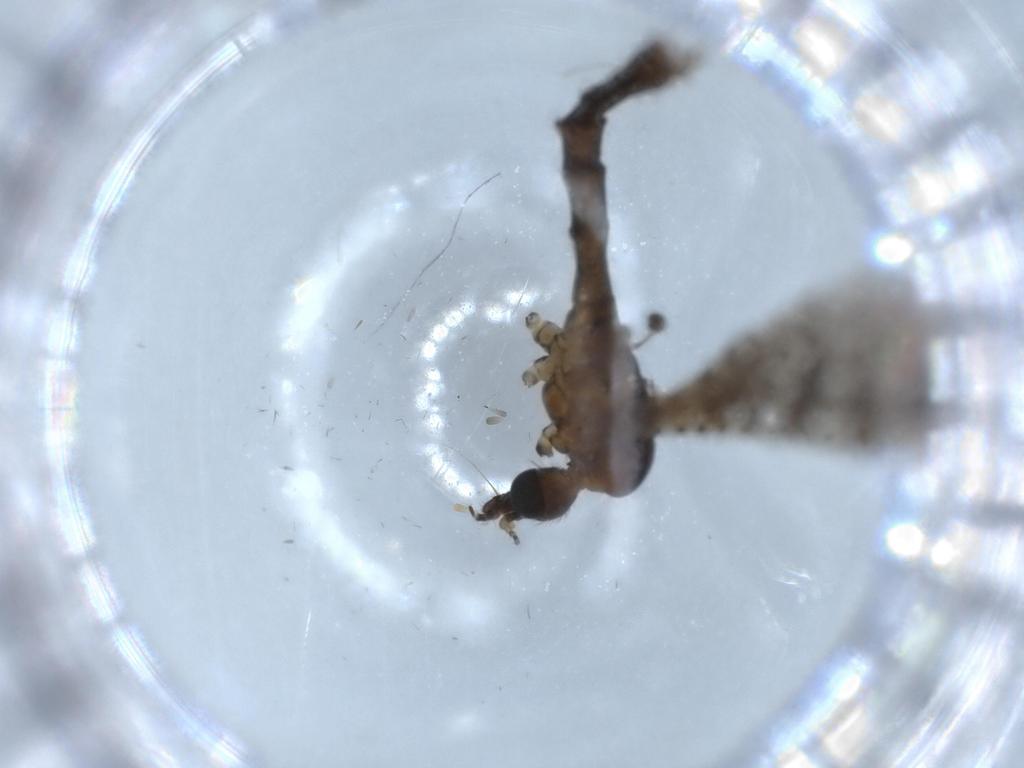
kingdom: Animalia
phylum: Arthropoda
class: Insecta
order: Diptera
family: Limoniidae
